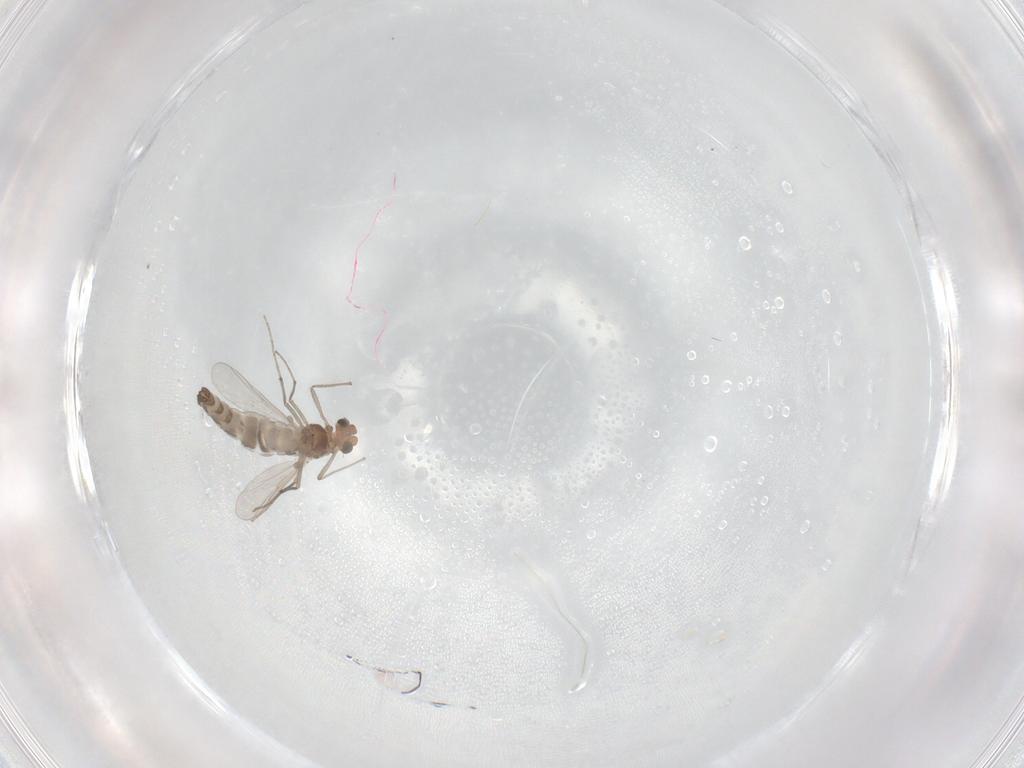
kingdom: Animalia
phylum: Arthropoda
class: Insecta
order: Diptera
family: Chironomidae
